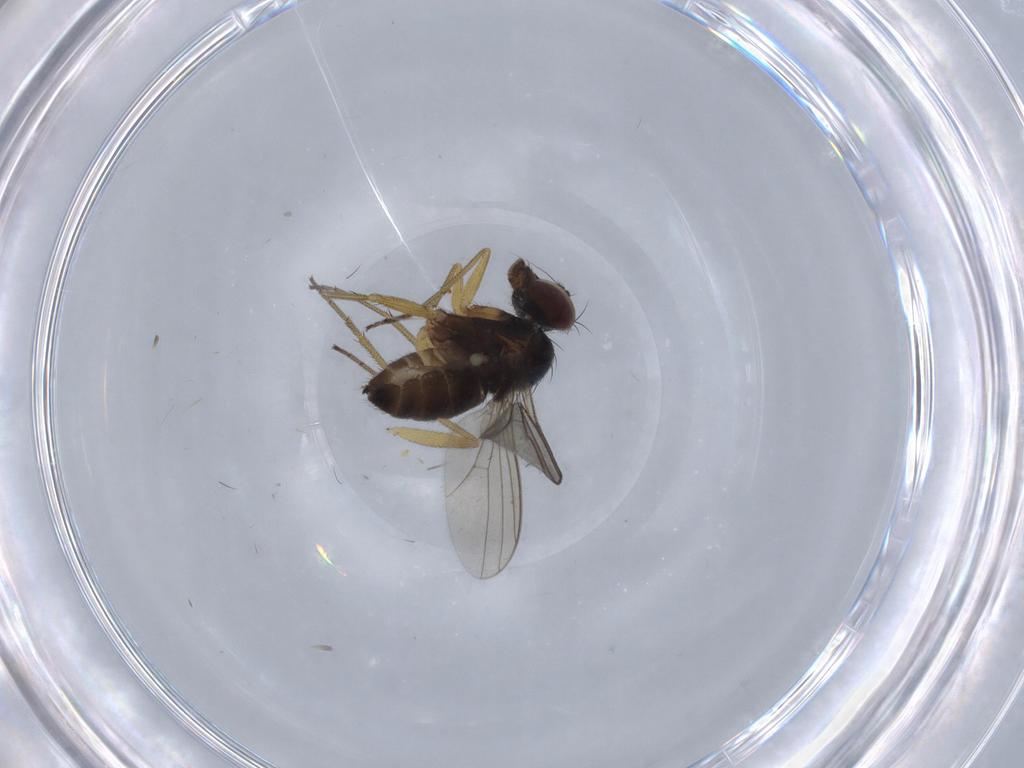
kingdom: Animalia
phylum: Arthropoda
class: Insecta
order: Diptera
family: Dolichopodidae
